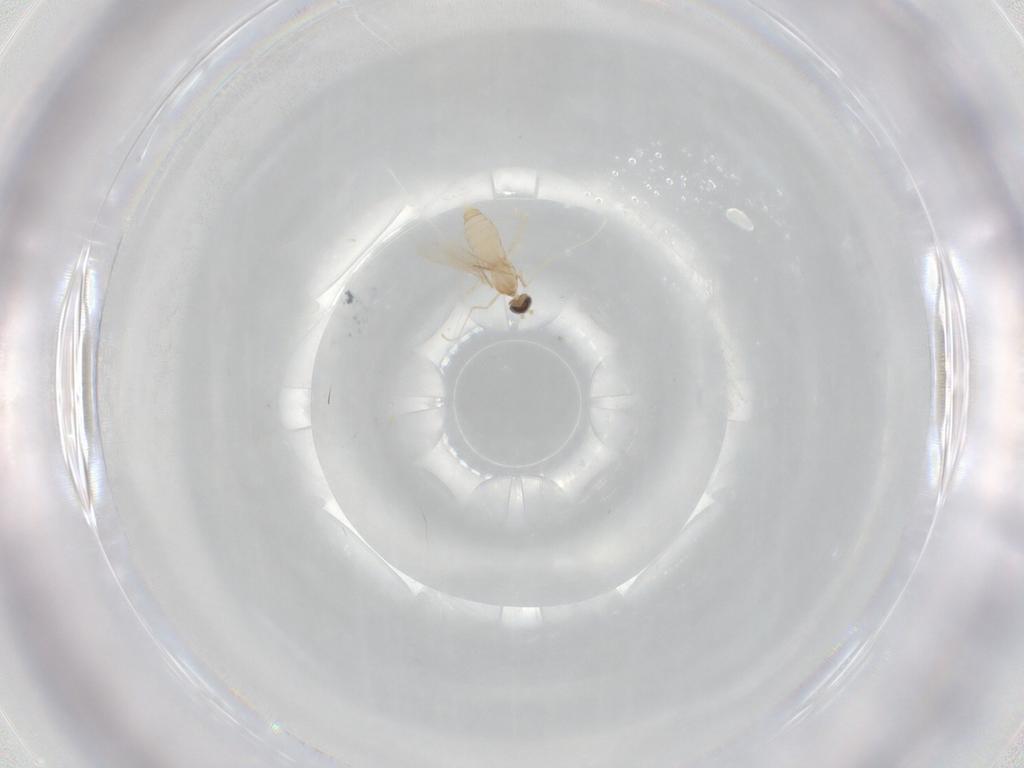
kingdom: Animalia
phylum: Arthropoda
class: Insecta
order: Diptera
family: Cecidomyiidae
